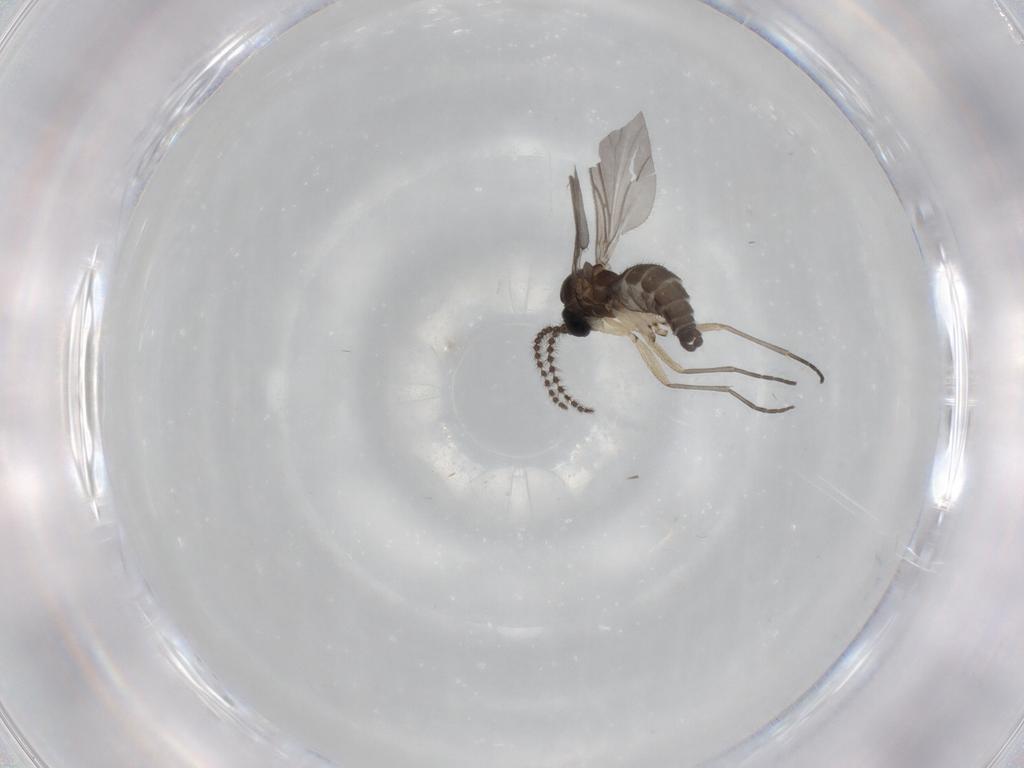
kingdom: Animalia
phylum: Arthropoda
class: Insecta
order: Diptera
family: Sciaridae
